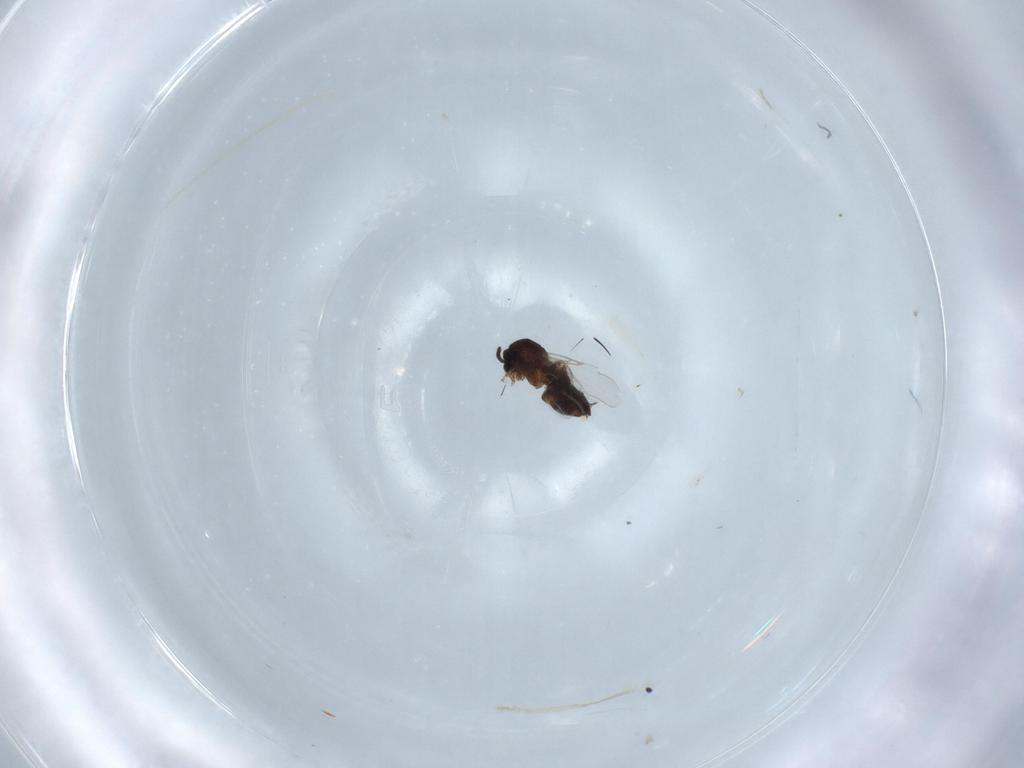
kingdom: Animalia
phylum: Arthropoda
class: Insecta
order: Diptera
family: Scatopsidae
